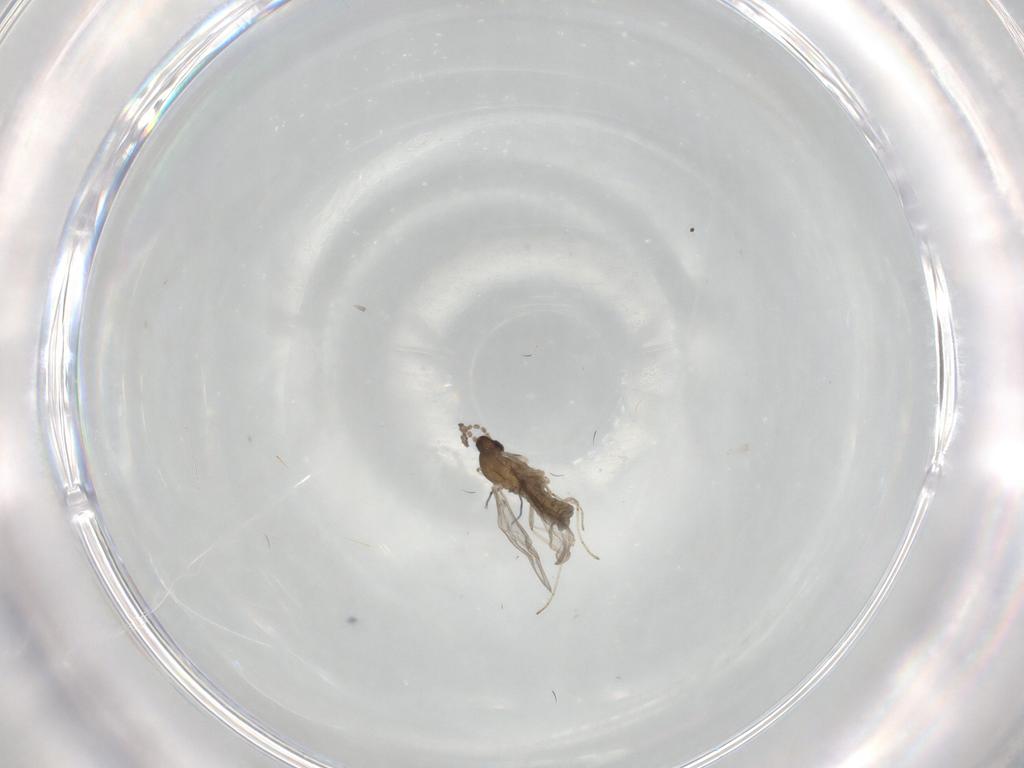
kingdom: Animalia
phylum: Arthropoda
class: Insecta
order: Diptera
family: Cecidomyiidae
